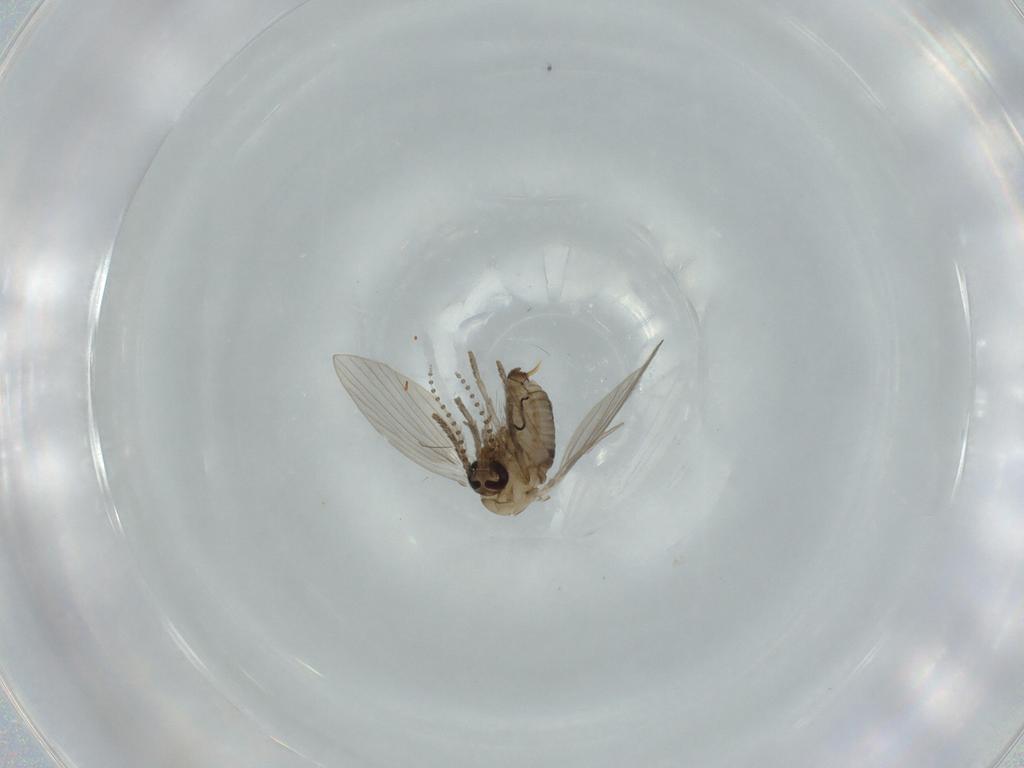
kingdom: Animalia
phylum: Arthropoda
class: Insecta
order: Diptera
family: Psychodidae
